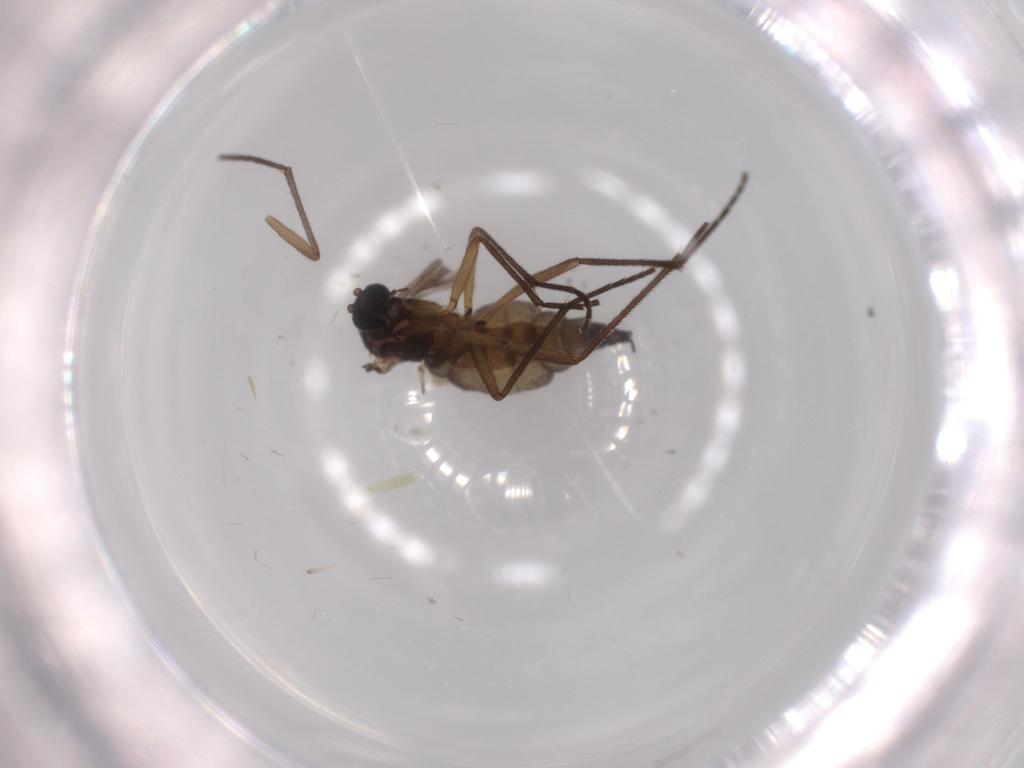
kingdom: Animalia
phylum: Arthropoda
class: Insecta
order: Diptera
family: Sciaridae
